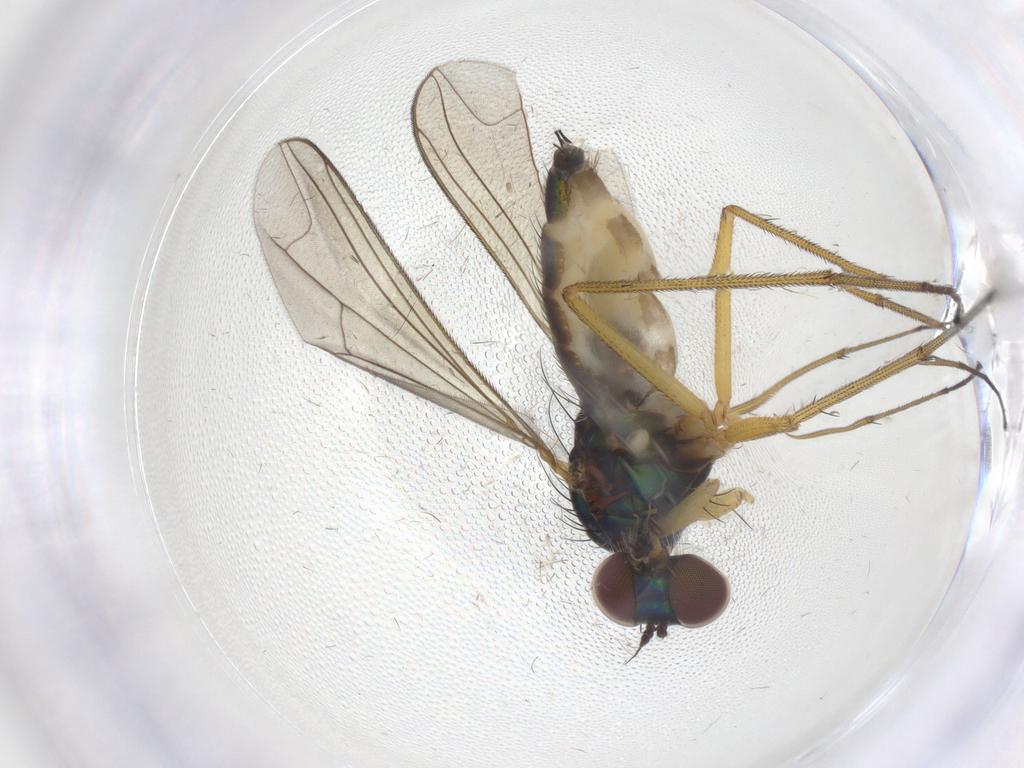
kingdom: Animalia
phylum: Arthropoda
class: Insecta
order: Diptera
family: Dolichopodidae
